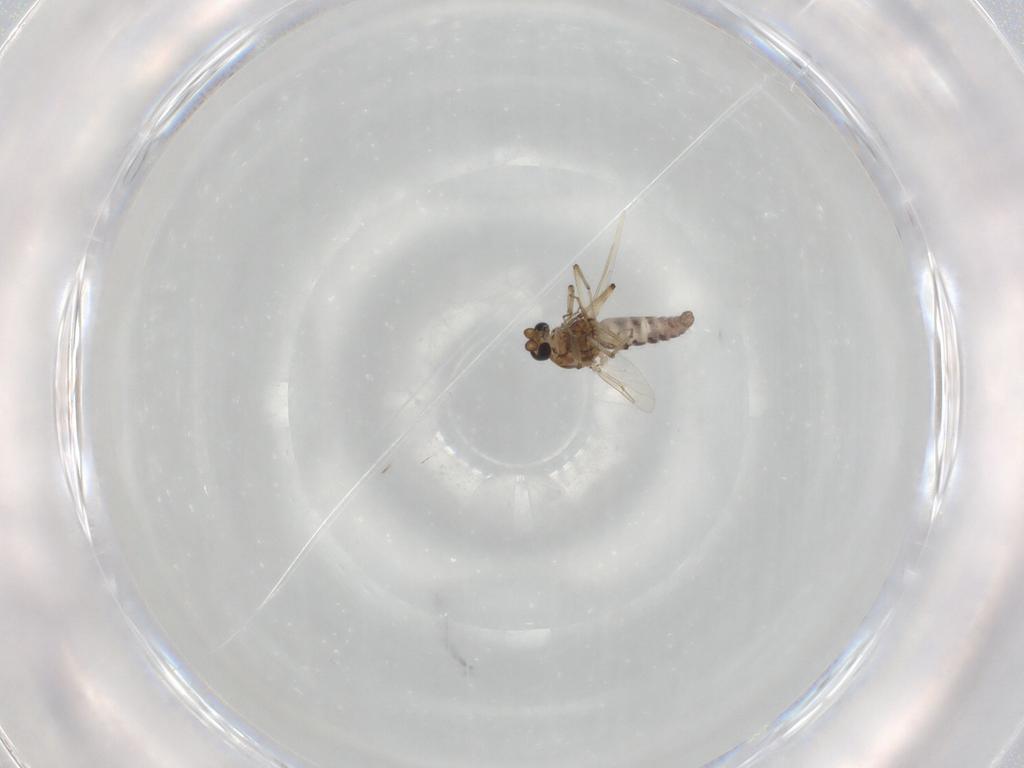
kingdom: Animalia
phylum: Arthropoda
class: Insecta
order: Diptera
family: Ceratopogonidae
